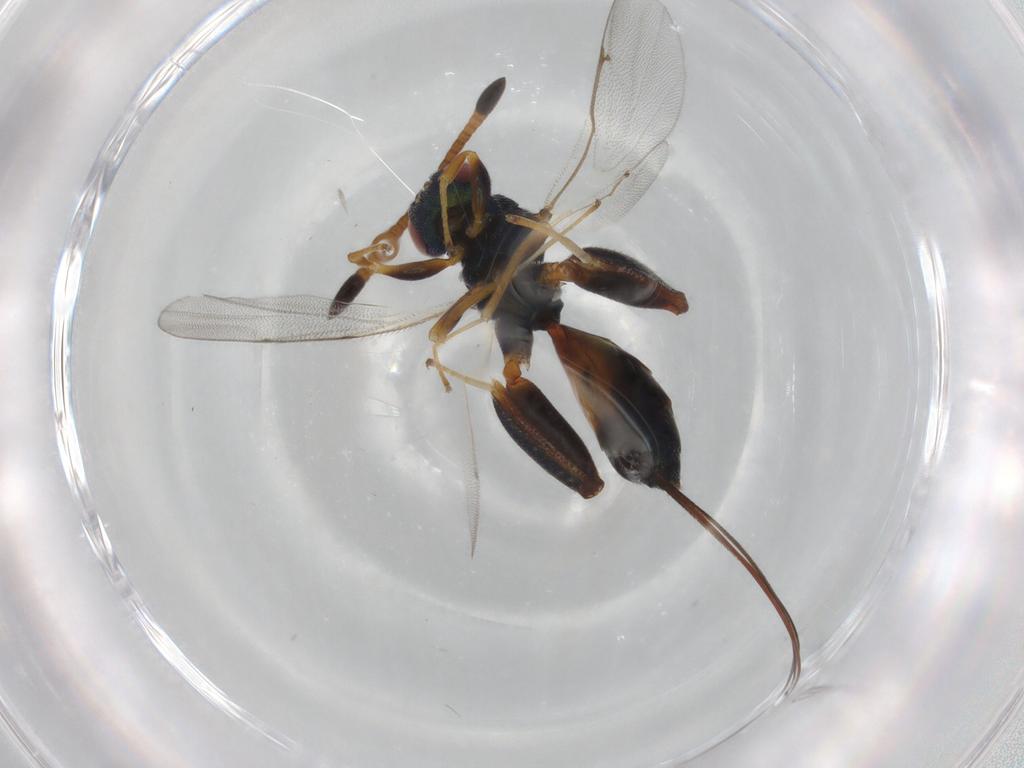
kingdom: Animalia
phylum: Arthropoda
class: Insecta
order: Hymenoptera
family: Torymidae
